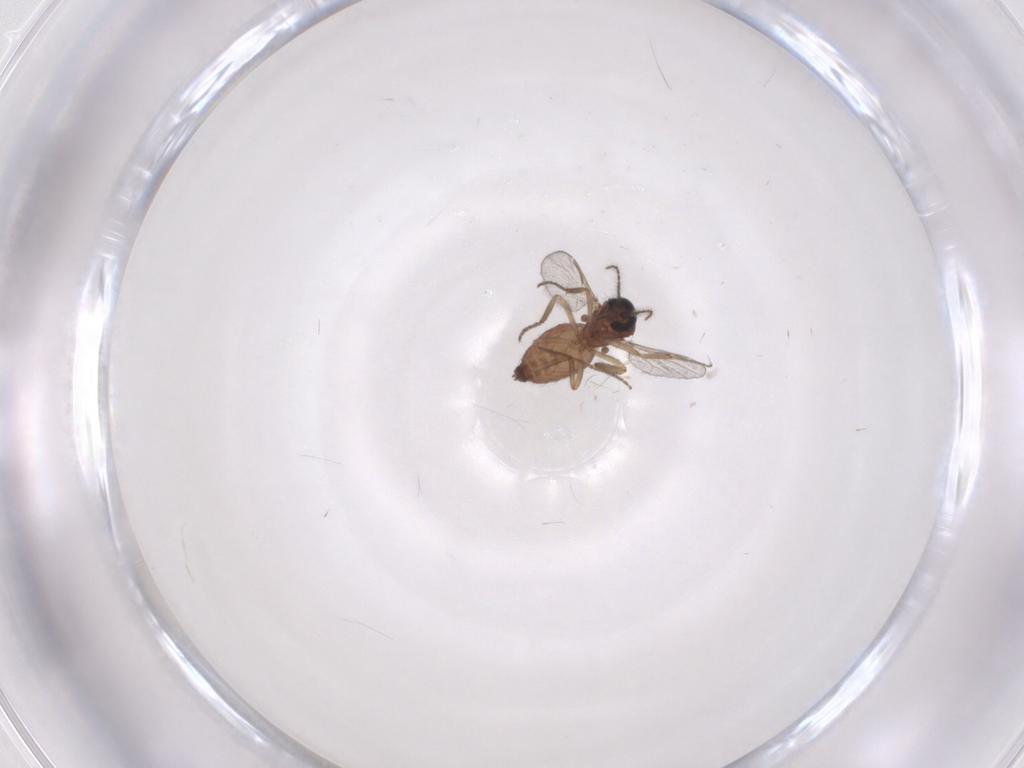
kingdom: Animalia
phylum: Arthropoda
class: Insecta
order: Diptera
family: Ceratopogonidae
